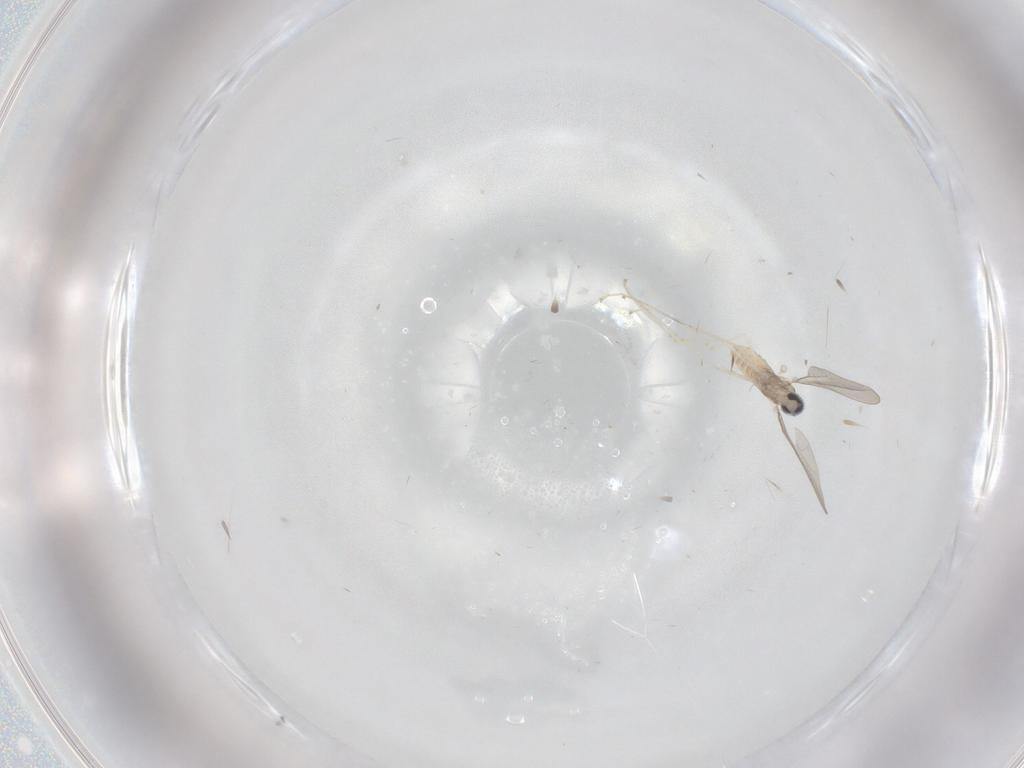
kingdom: Animalia
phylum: Arthropoda
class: Insecta
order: Diptera
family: Cecidomyiidae
